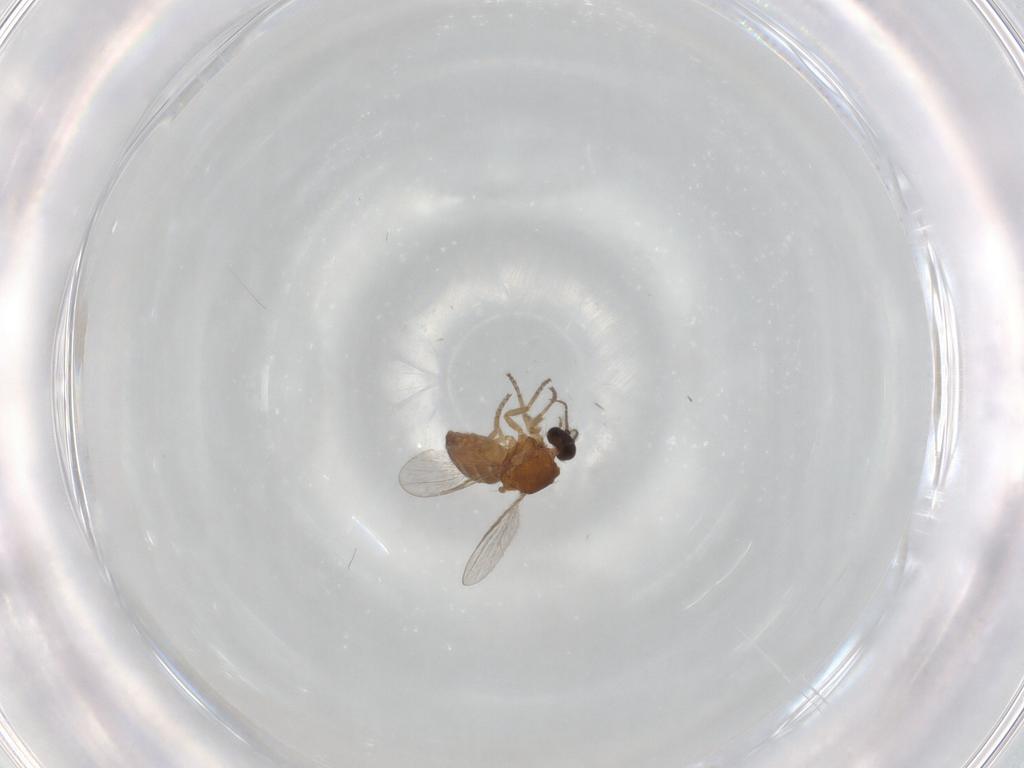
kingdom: Animalia
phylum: Arthropoda
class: Insecta
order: Diptera
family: Ceratopogonidae
